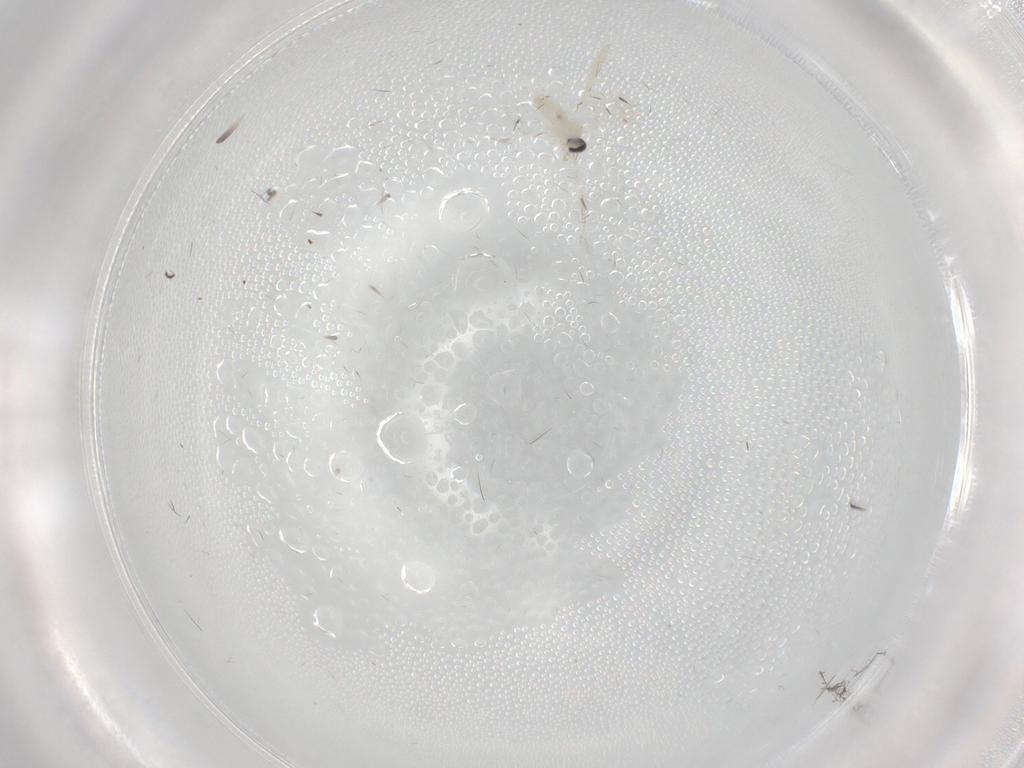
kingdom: Animalia
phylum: Arthropoda
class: Insecta
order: Diptera
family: Cecidomyiidae
